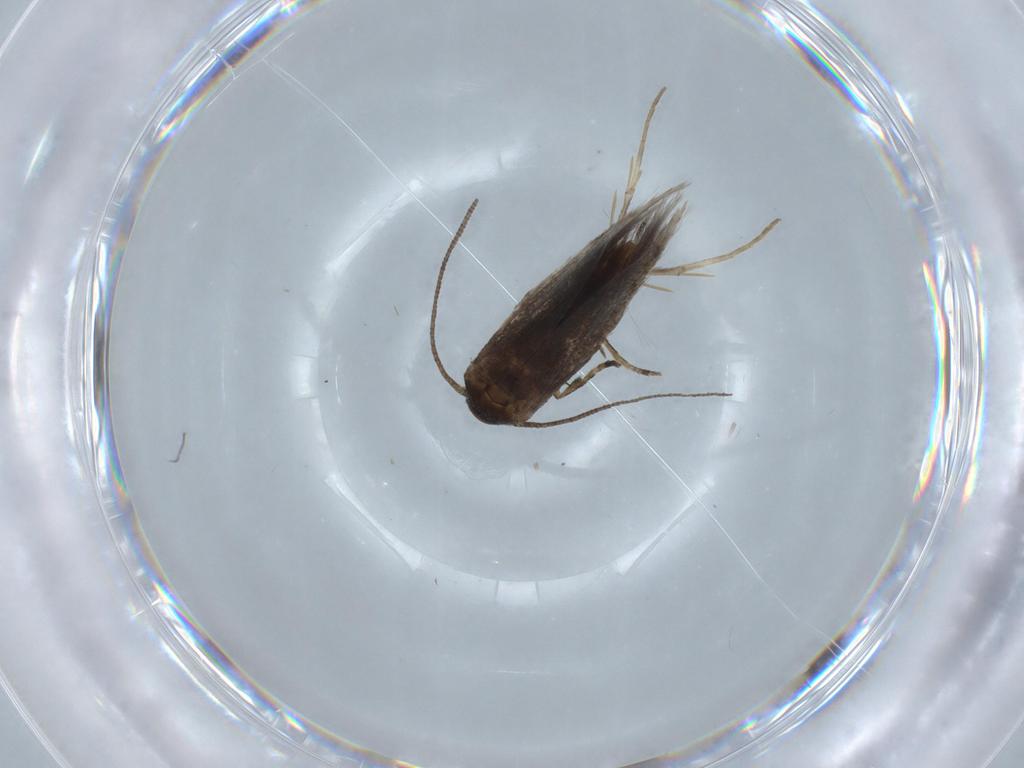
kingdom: Animalia
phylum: Arthropoda
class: Insecta
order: Lepidoptera
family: Elachistidae
